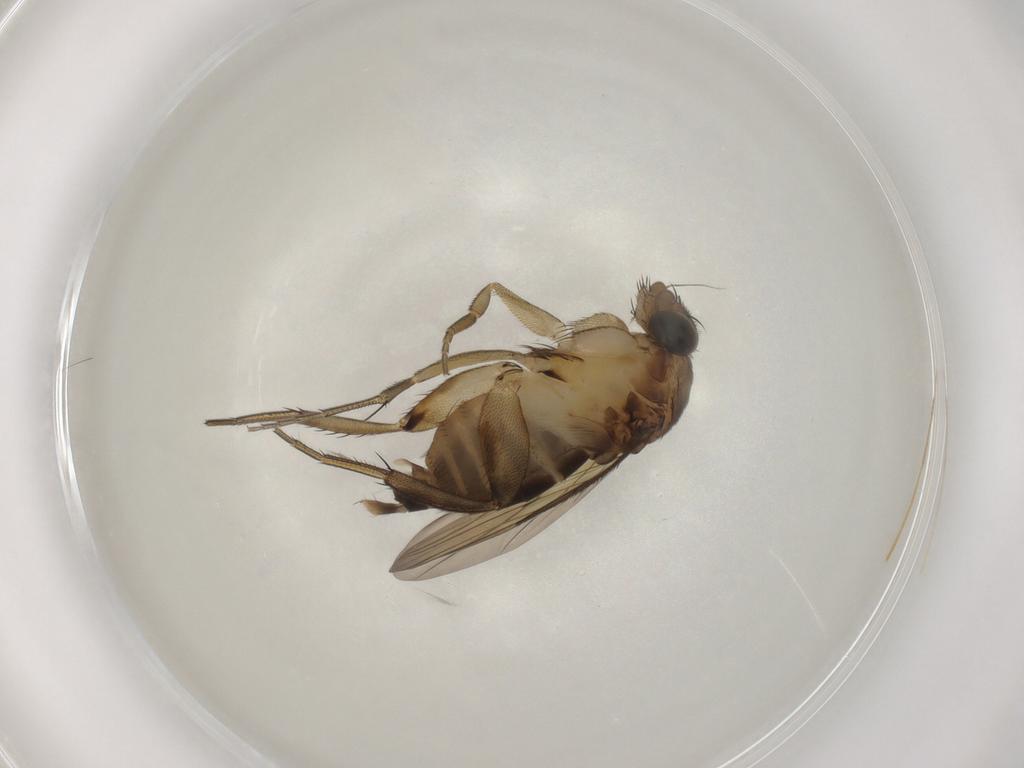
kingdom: Animalia
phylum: Arthropoda
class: Insecta
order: Diptera
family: Phoridae
